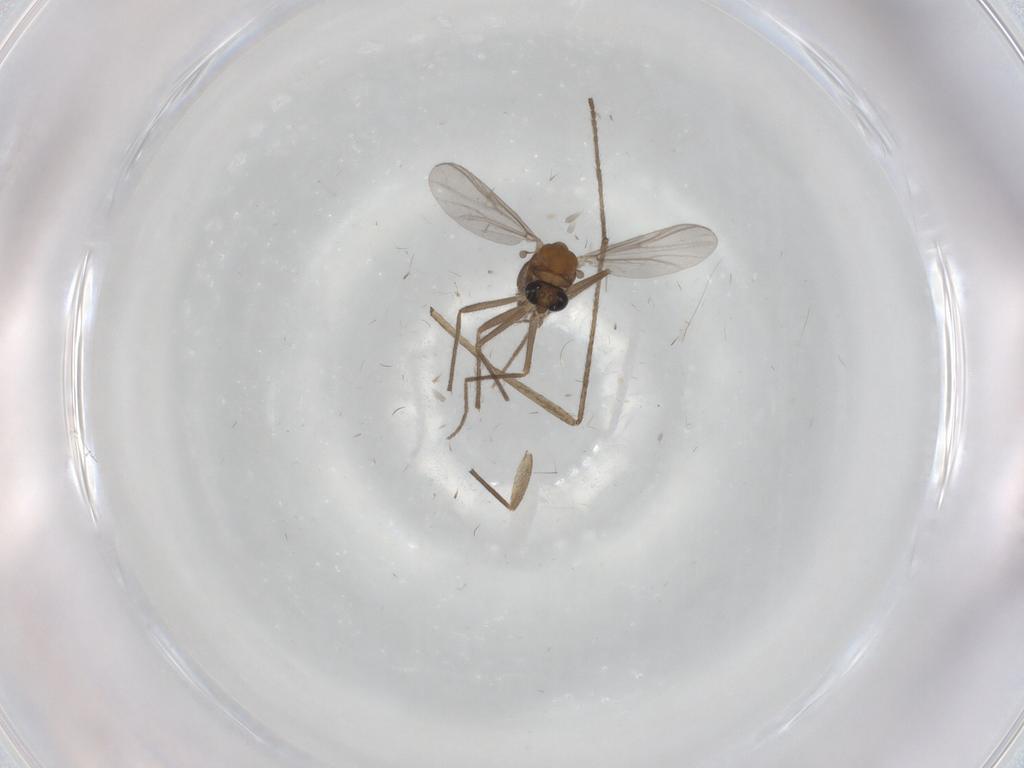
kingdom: Animalia
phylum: Arthropoda
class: Insecta
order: Diptera
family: Chironomidae
